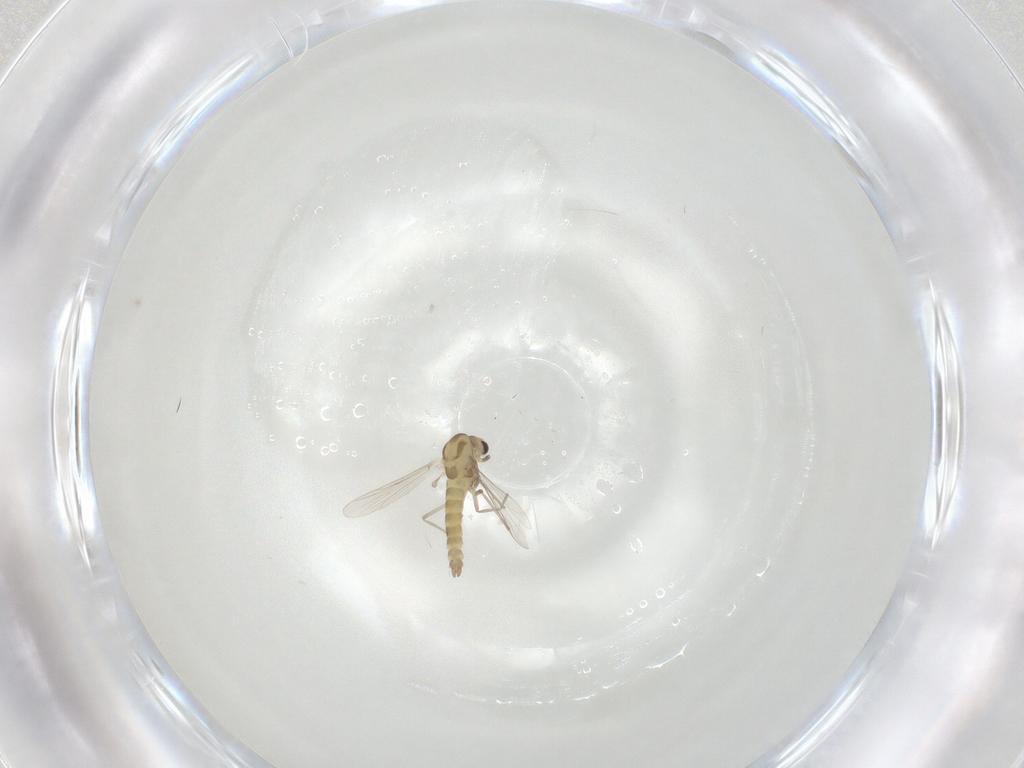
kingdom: Animalia
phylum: Arthropoda
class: Insecta
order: Diptera
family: Chironomidae
